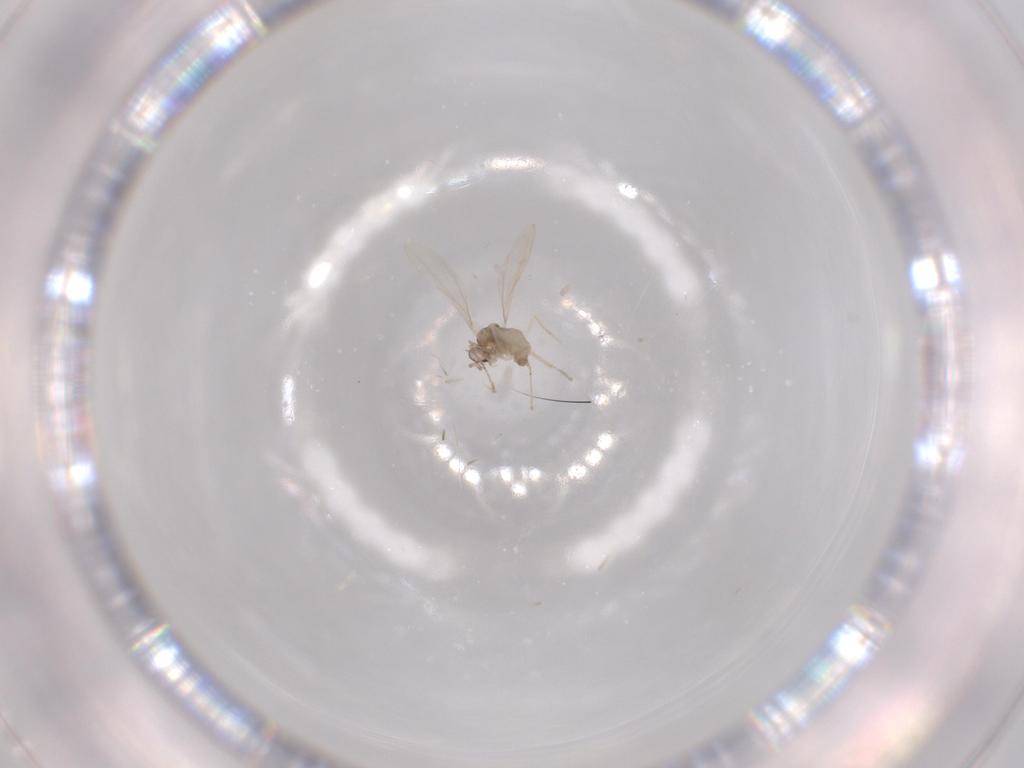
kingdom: Animalia
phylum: Arthropoda
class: Insecta
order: Diptera
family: Cecidomyiidae
